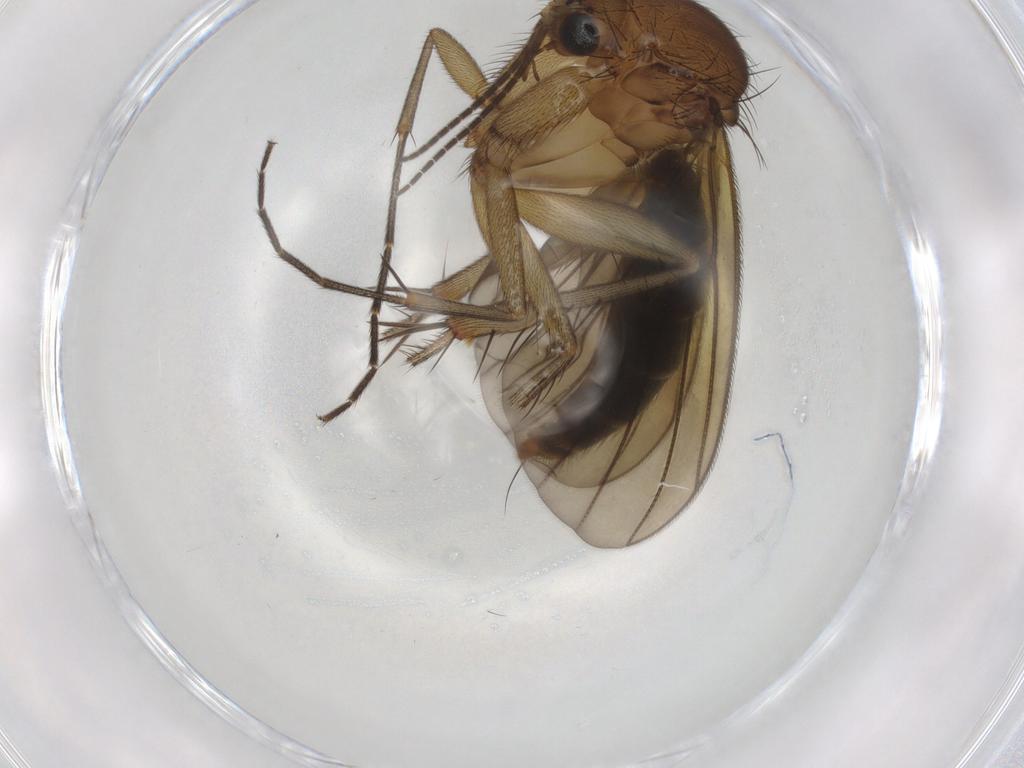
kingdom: Animalia
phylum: Arthropoda
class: Insecta
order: Diptera
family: Mycetophilidae
